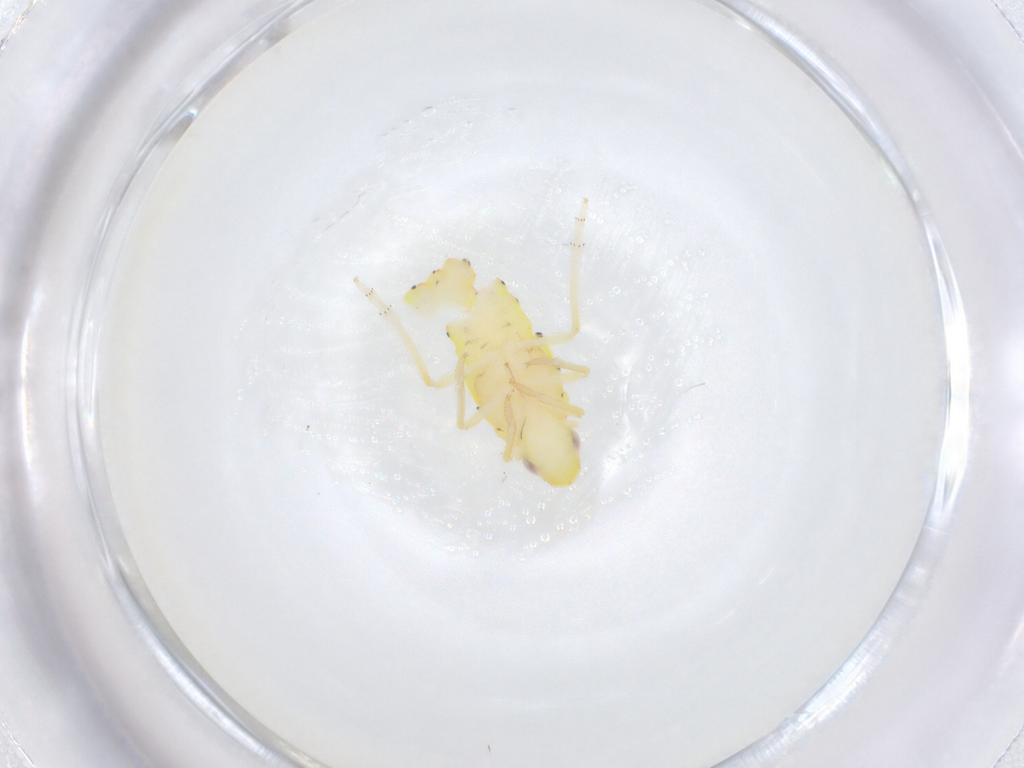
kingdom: Animalia
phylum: Arthropoda
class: Insecta
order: Hemiptera
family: Tropiduchidae
